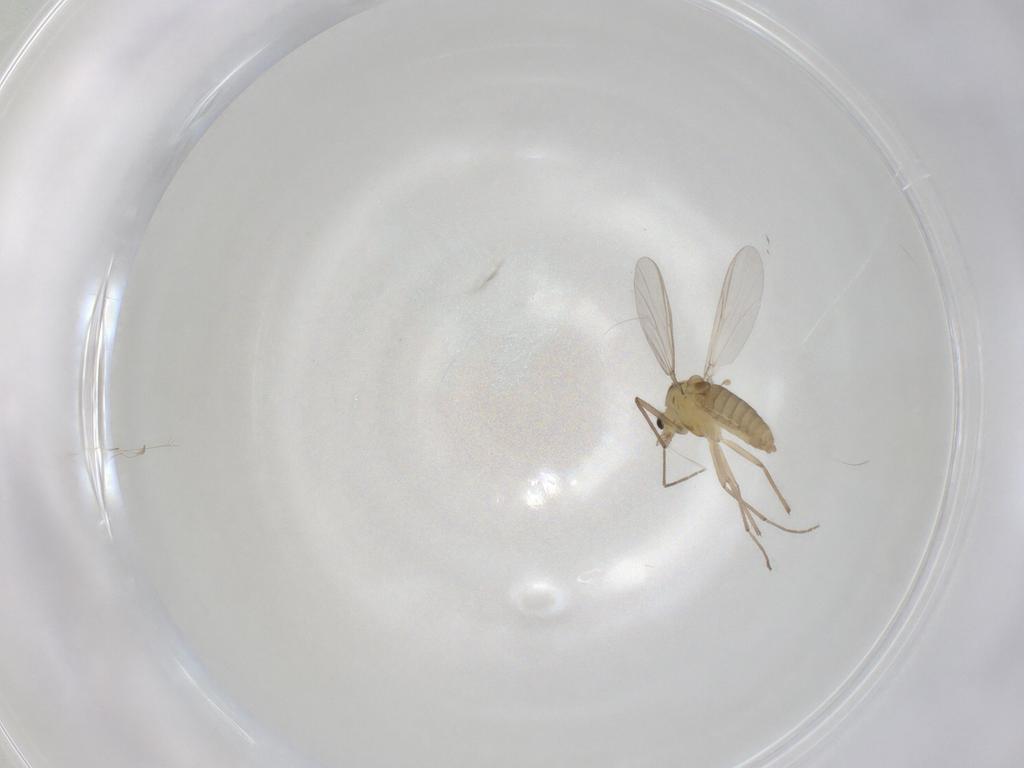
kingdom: Animalia
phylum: Arthropoda
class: Insecta
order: Diptera
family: Chironomidae
